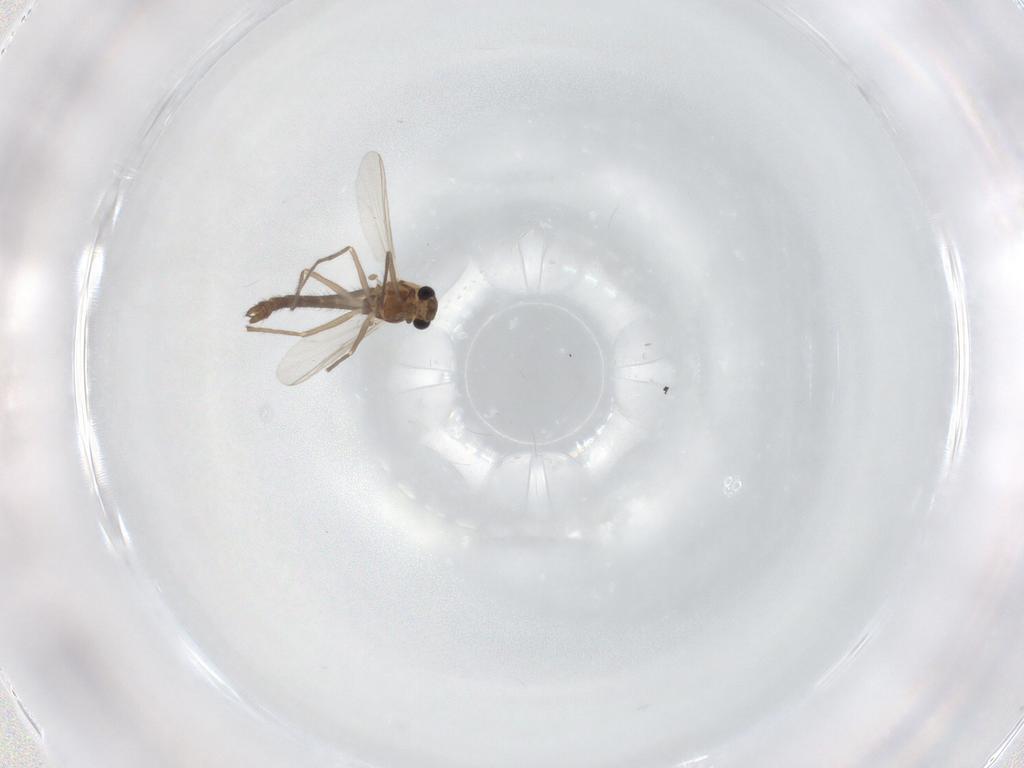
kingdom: Animalia
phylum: Arthropoda
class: Insecta
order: Diptera
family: Chironomidae
